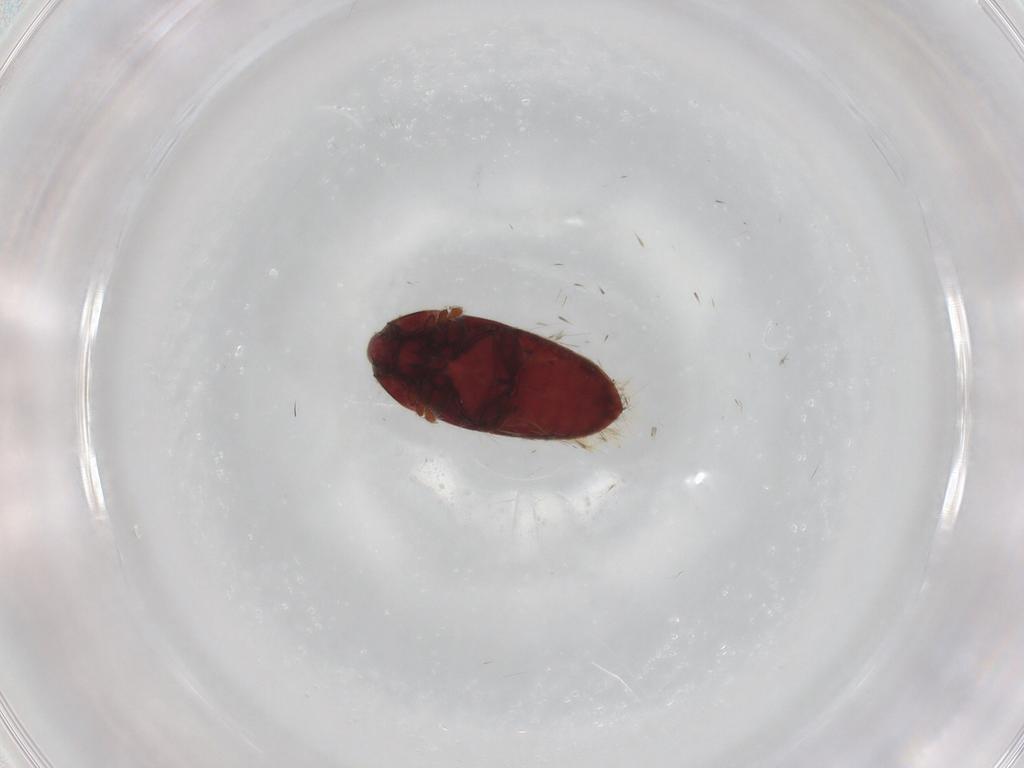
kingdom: Animalia
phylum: Arthropoda
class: Insecta
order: Coleoptera
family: Throscidae
